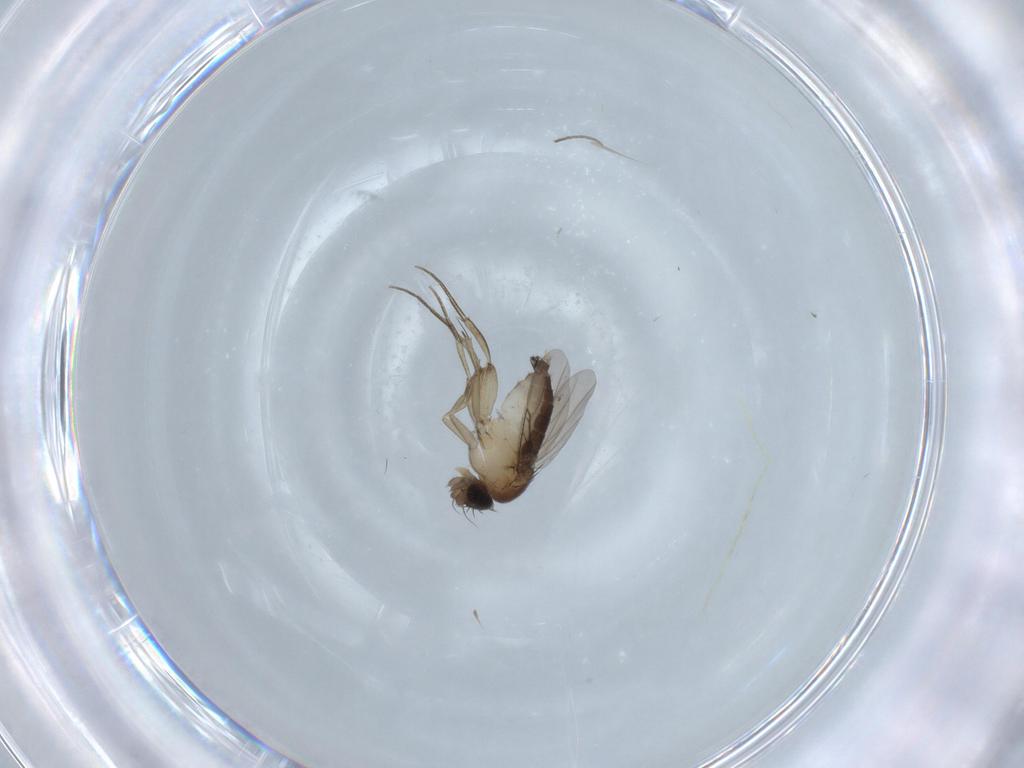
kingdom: Animalia
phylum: Arthropoda
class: Insecta
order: Diptera
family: Phoridae
